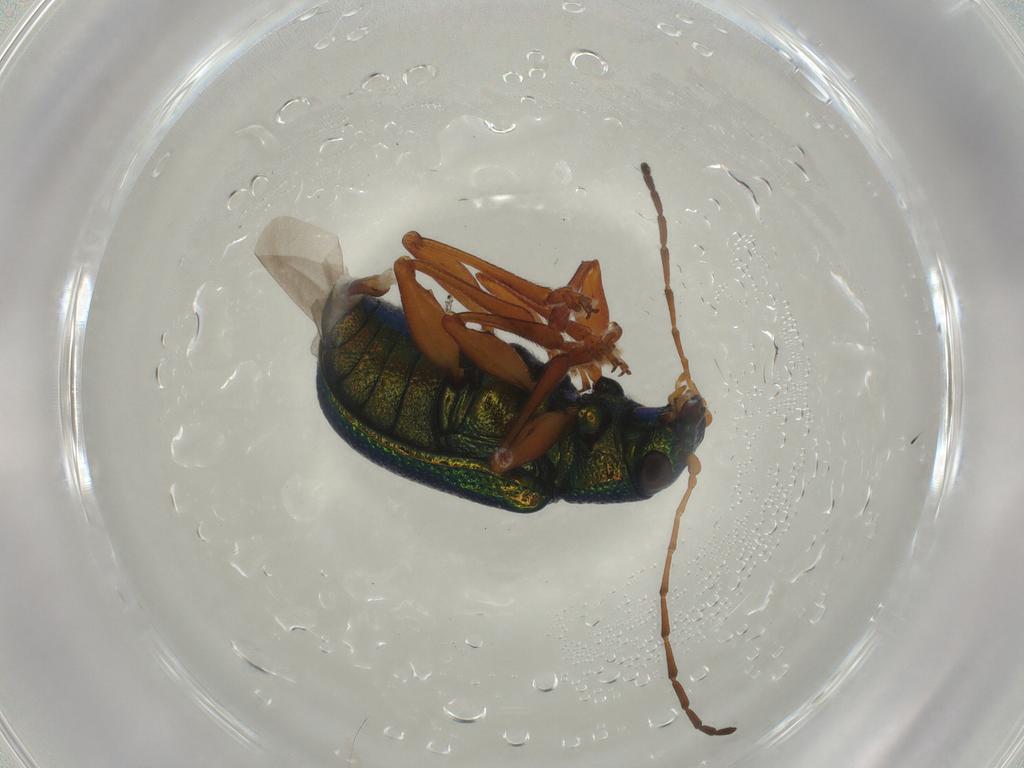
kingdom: Animalia
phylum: Arthropoda
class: Insecta
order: Coleoptera
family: Chrysomelidae
